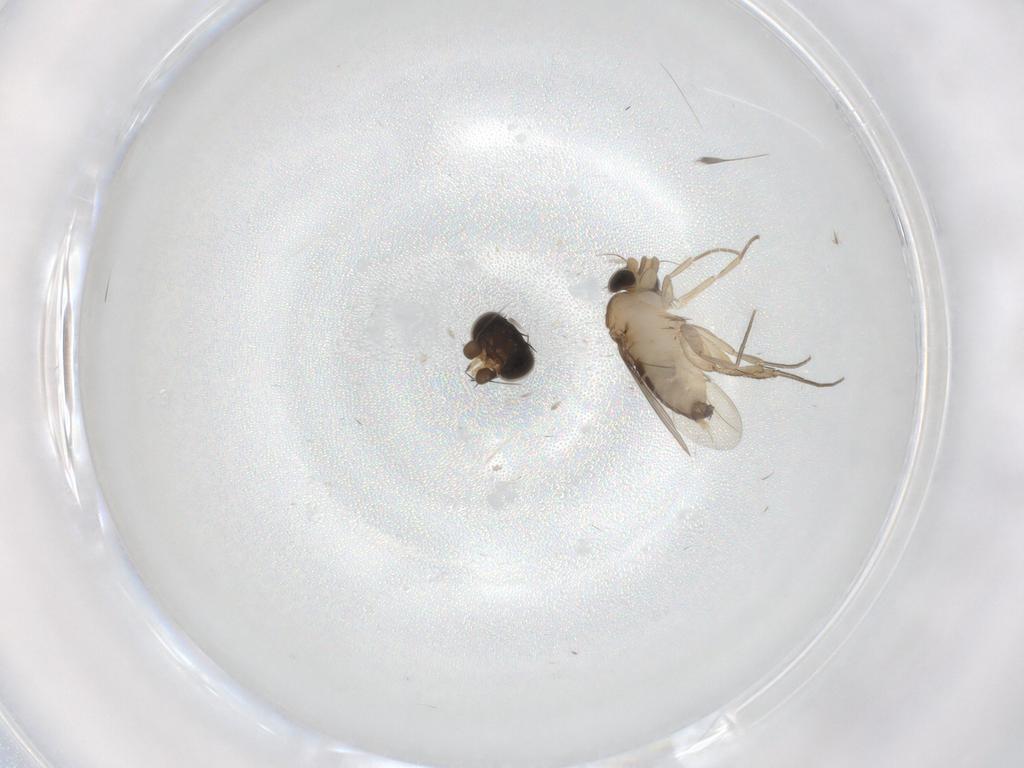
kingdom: Animalia
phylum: Arthropoda
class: Insecta
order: Diptera
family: Phoridae
